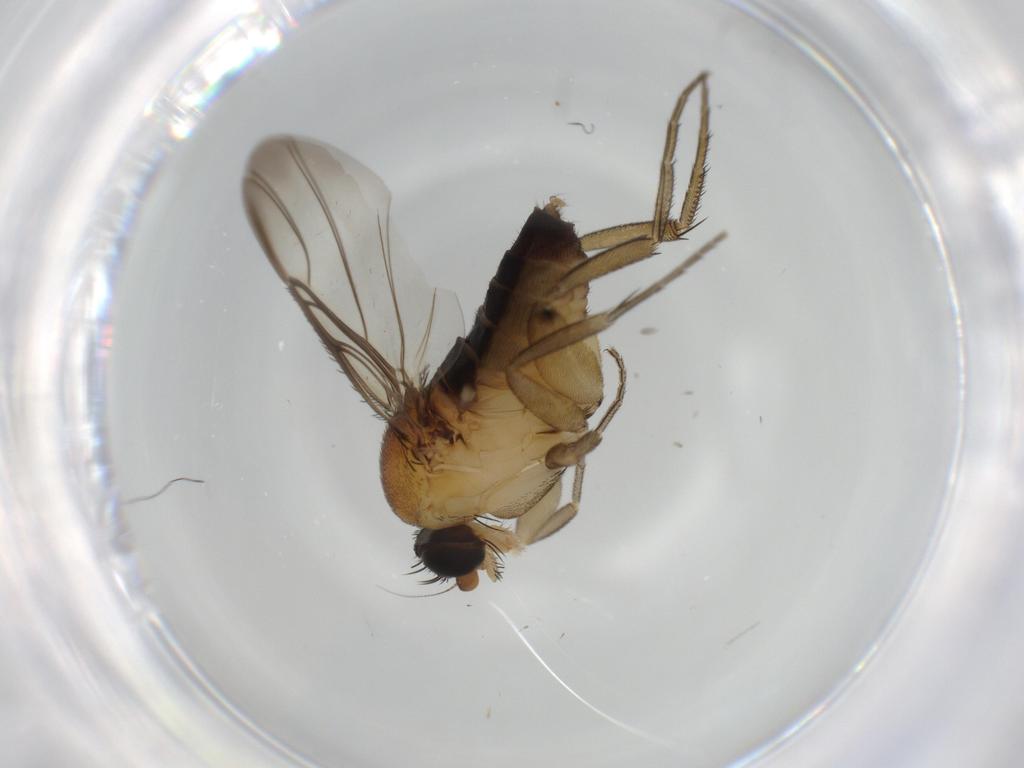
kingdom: Animalia
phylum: Arthropoda
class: Insecta
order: Diptera
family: Phoridae
